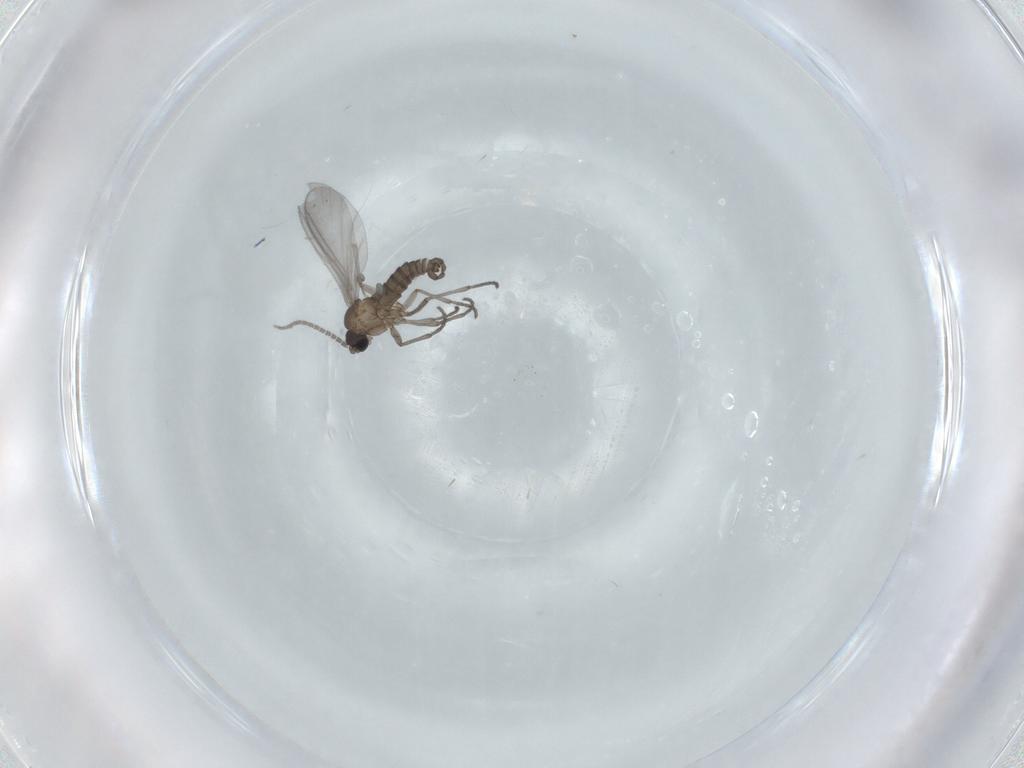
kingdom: Animalia
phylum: Arthropoda
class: Insecta
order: Diptera
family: Sciaridae
